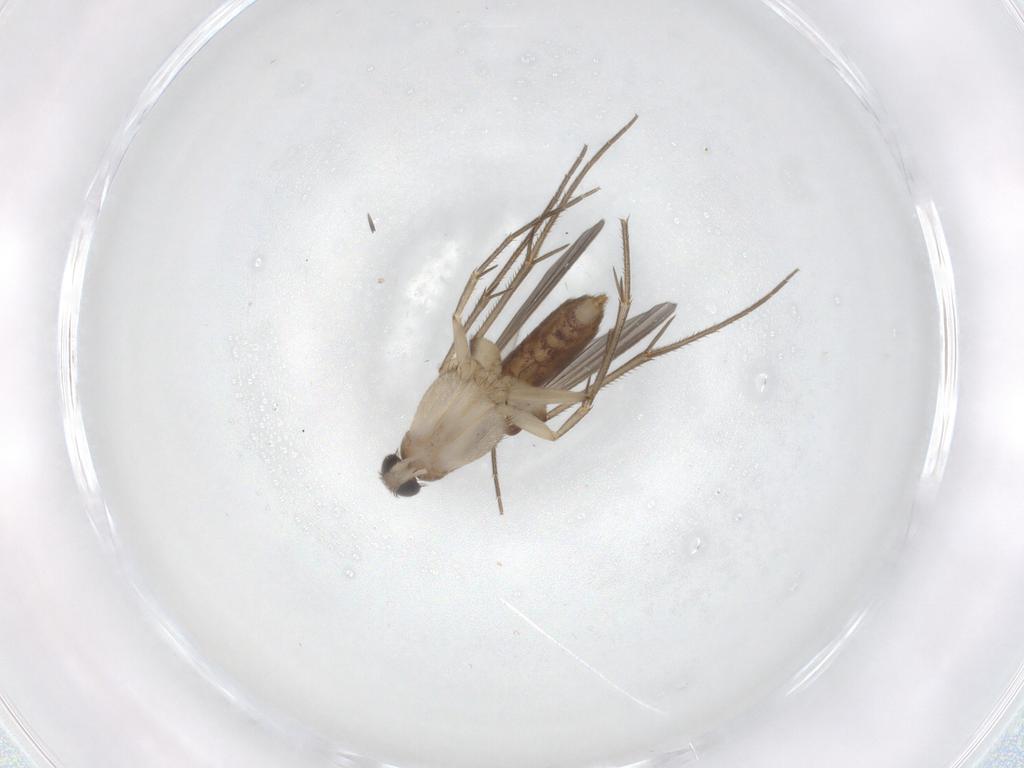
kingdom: Animalia
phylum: Arthropoda
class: Insecta
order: Diptera
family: Mycetophilidae
